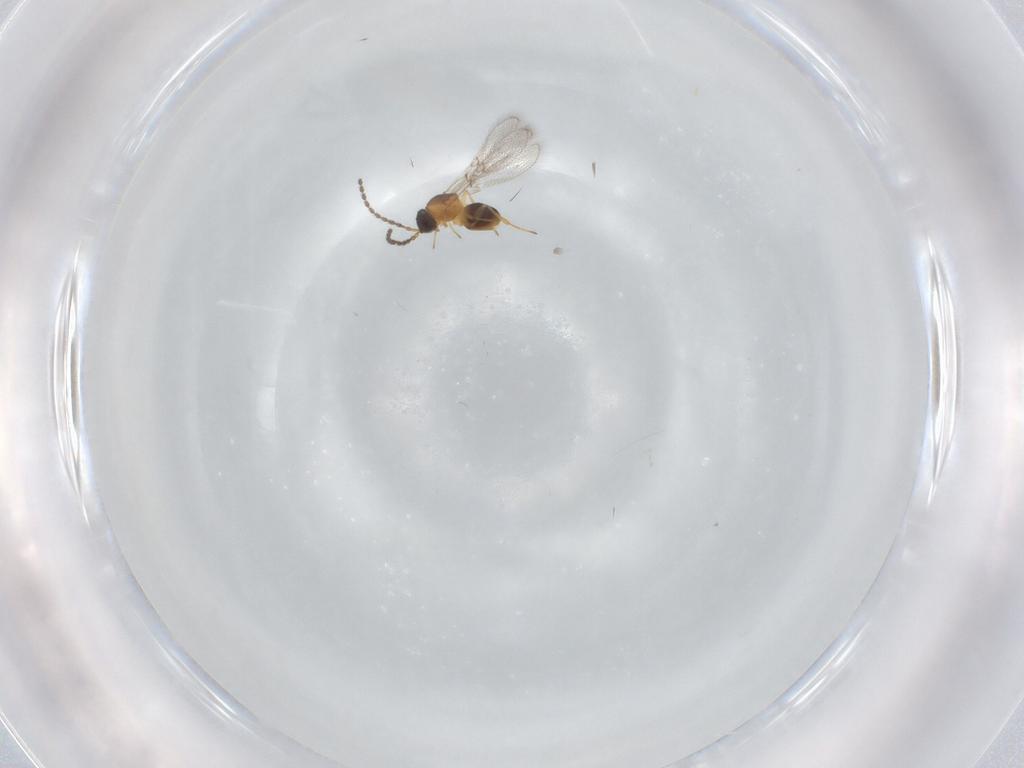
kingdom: Animalia
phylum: Arthropoda
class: Insecta
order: Hymenoptera
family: Figitidae
